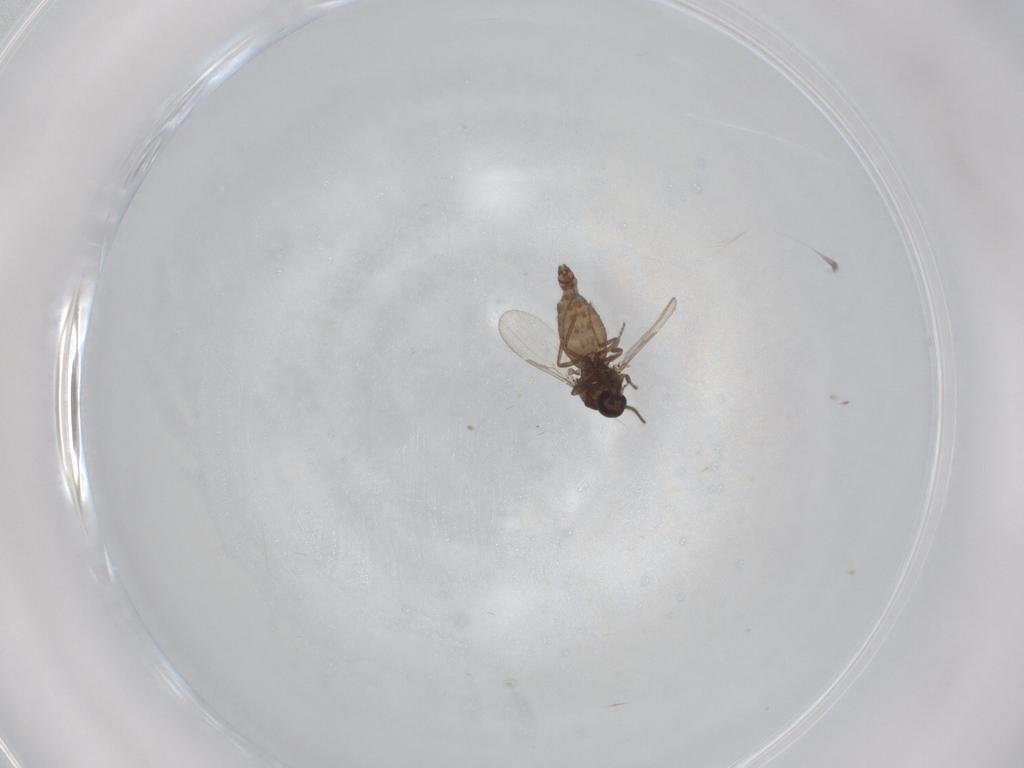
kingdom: Animalia
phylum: Arthropoda
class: Insecta
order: Diptera
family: Ceratopogonidae
